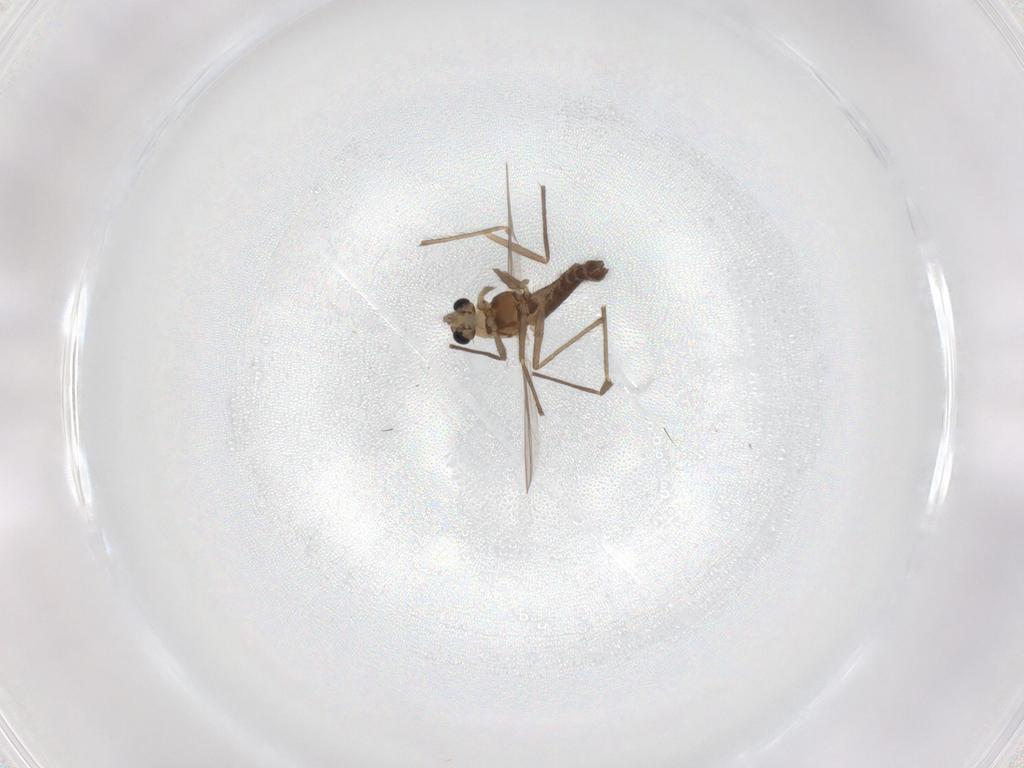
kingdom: Animalia
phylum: Arthropoda
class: Insecta
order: Diptera
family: Chironomidae
